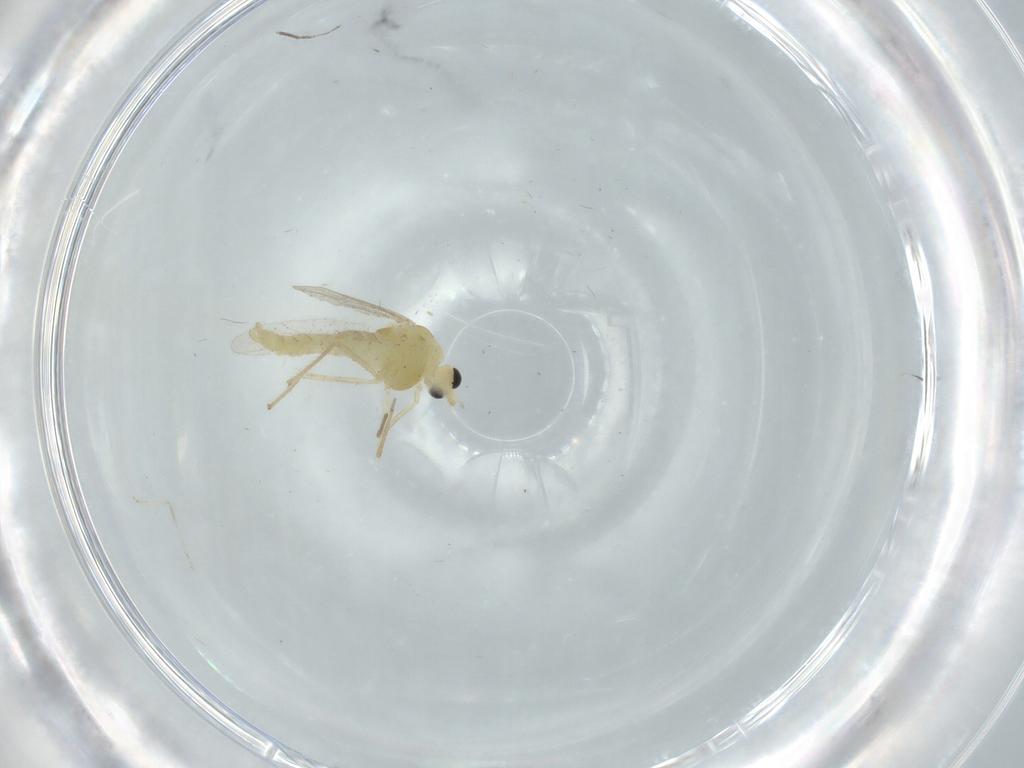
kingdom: Animalia
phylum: Arthropoda
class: Insecta
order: Diptera
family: Chironomidae
